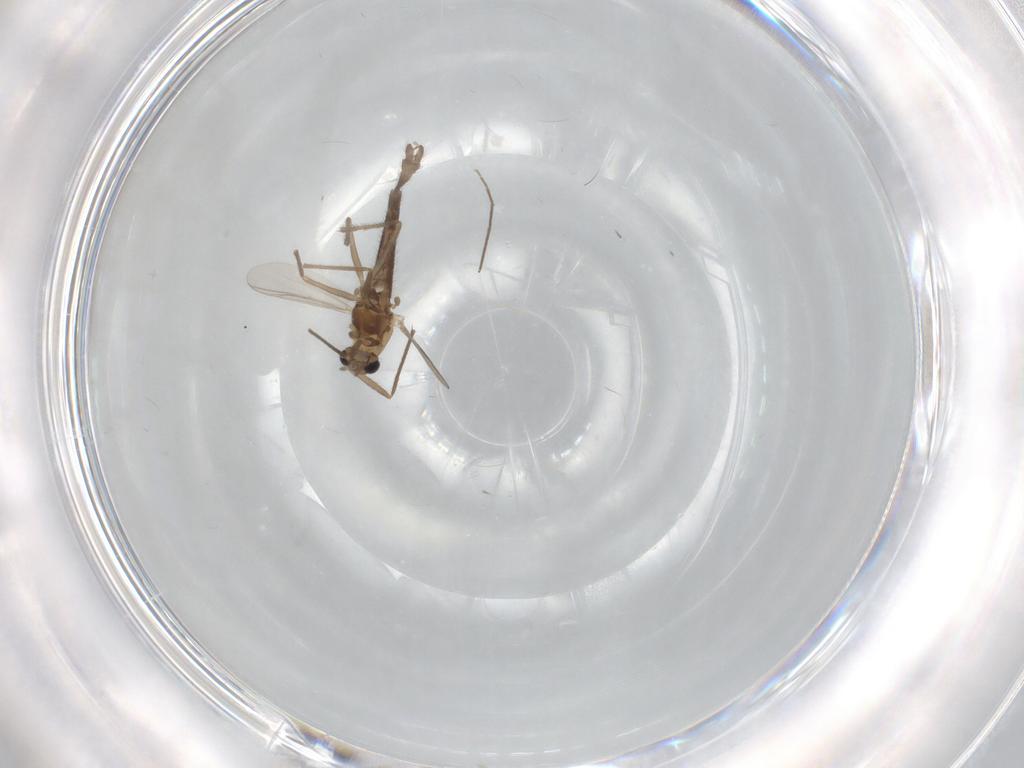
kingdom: Animalia
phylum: Arthropoda
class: Insecta
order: Diptera
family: Chironomidae
